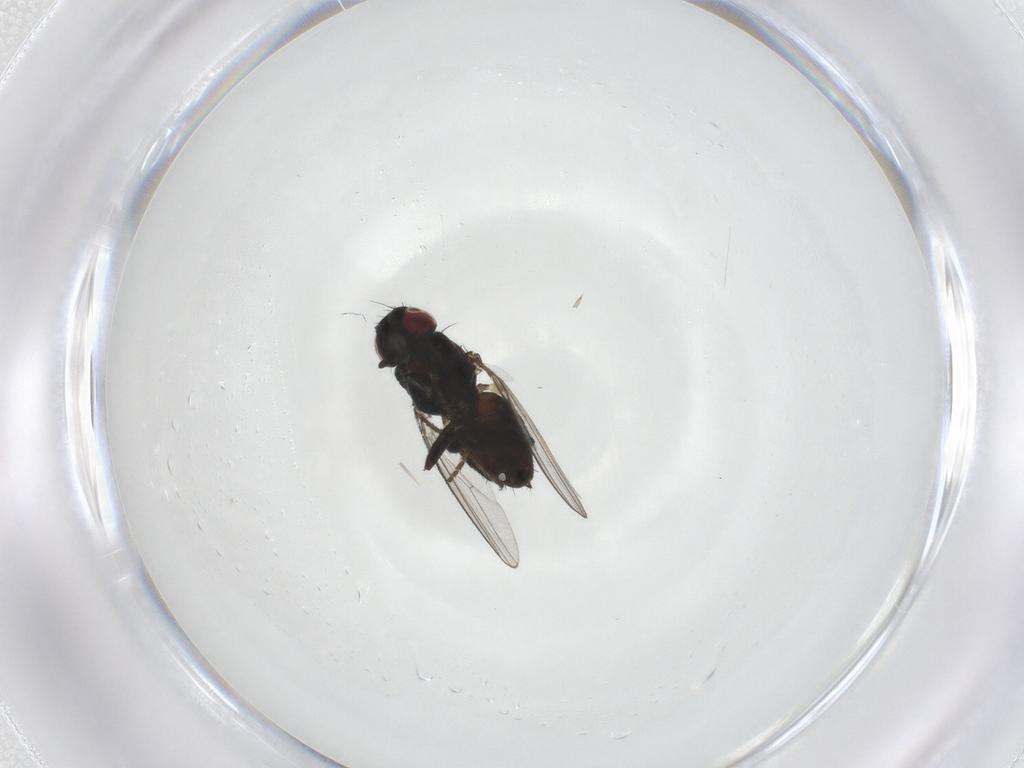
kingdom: Animalia
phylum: Arthropoda
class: Insecta
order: Diptera
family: Milichiidae
